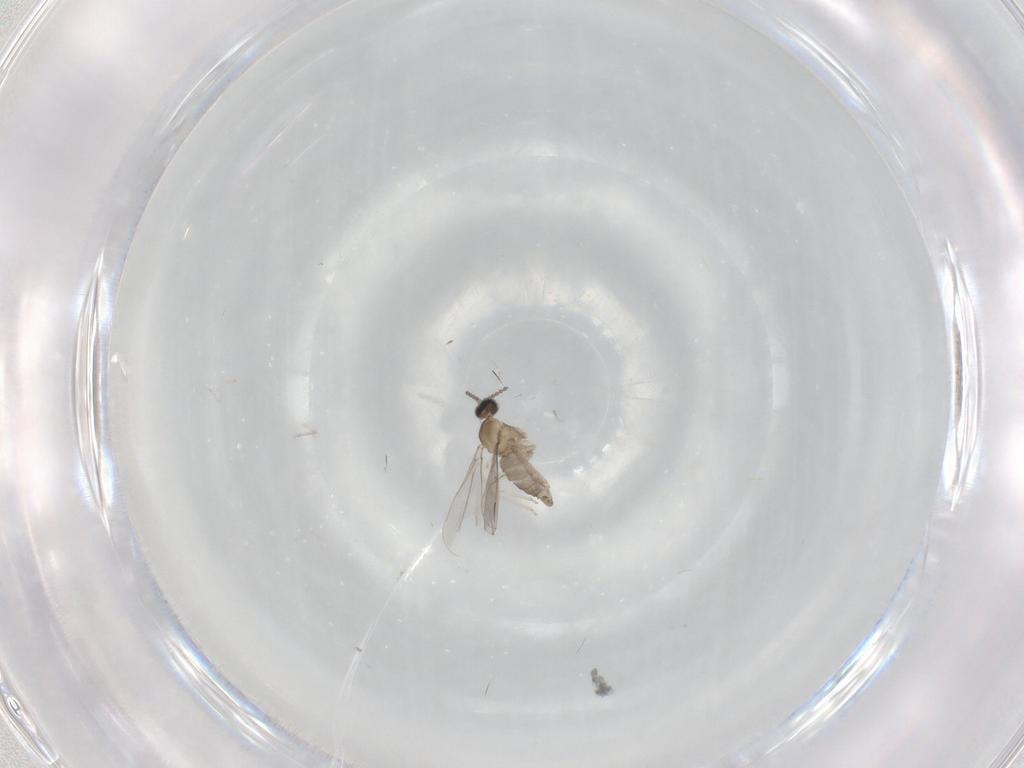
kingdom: Animalia
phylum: Arthropoda
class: Insecta
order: Diptera
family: Cecidomyiidae
